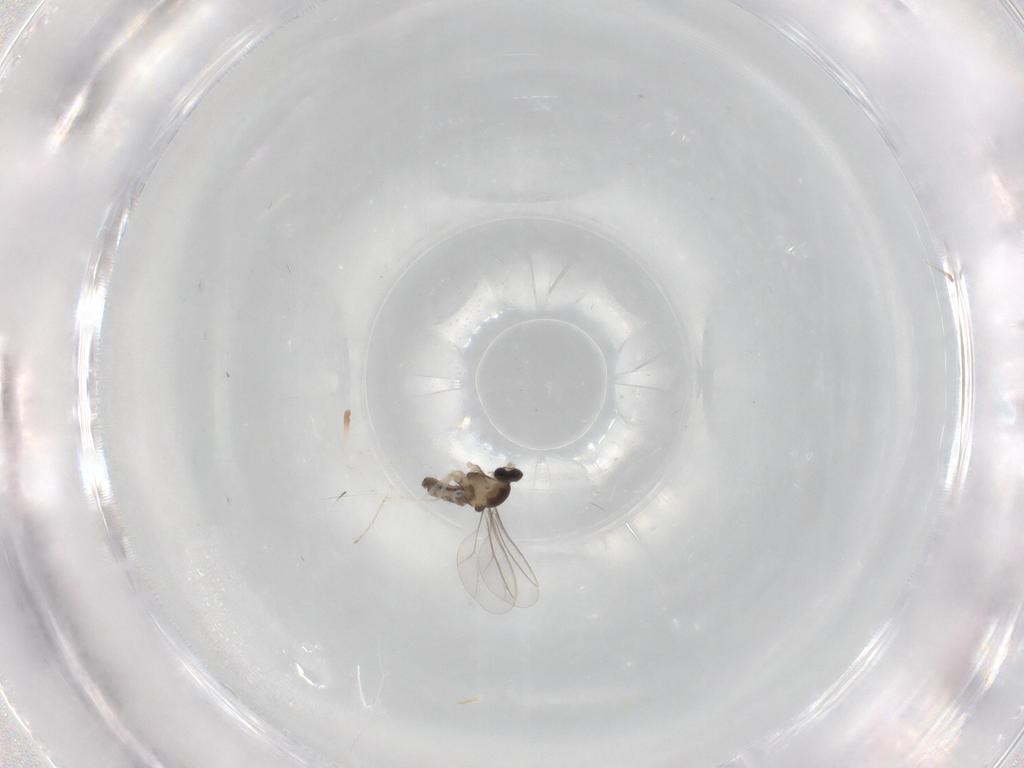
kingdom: Animalia
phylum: Arthropoda
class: Insecta
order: Diptera
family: Cecidomyiidae
